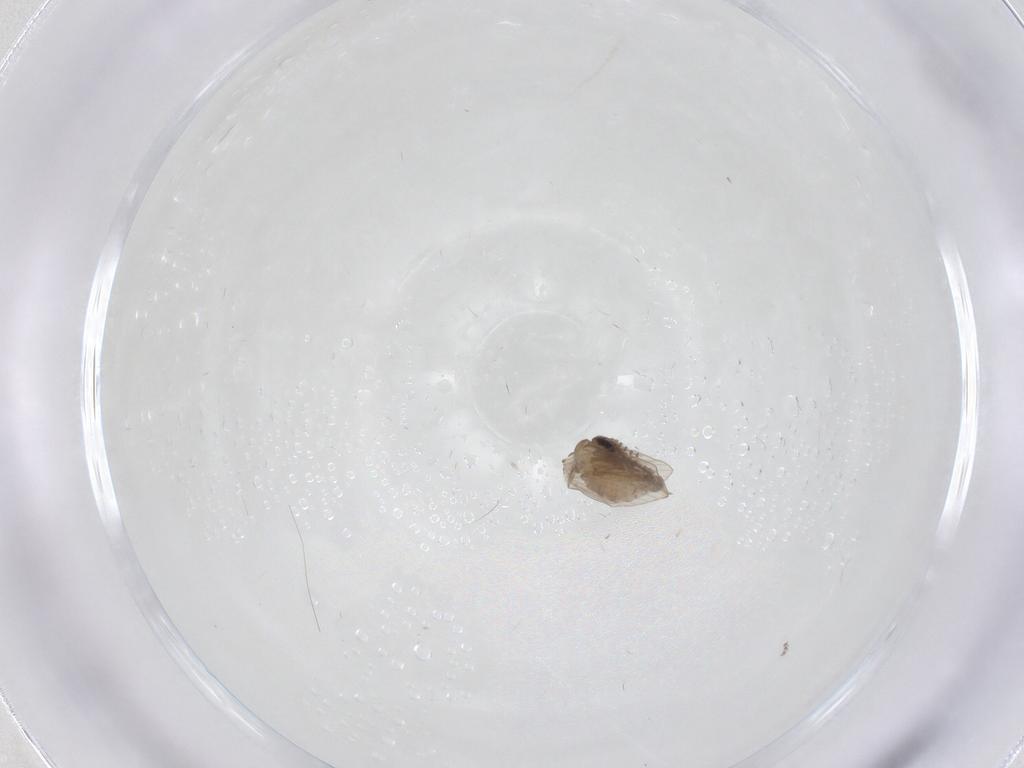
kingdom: Animalia
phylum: Arthropoda
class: Insecta
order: Diptera
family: Psychodidae
